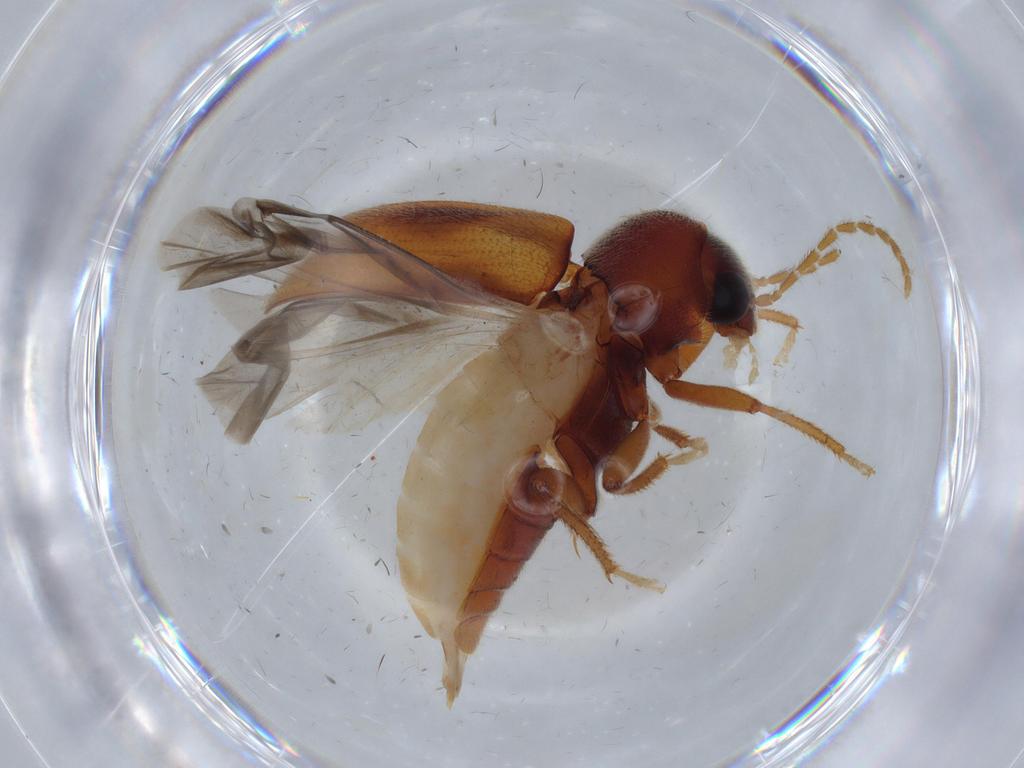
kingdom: Animalia
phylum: Arthropoda
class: Insecta
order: Coleoptera
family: Ptilodactylidae
